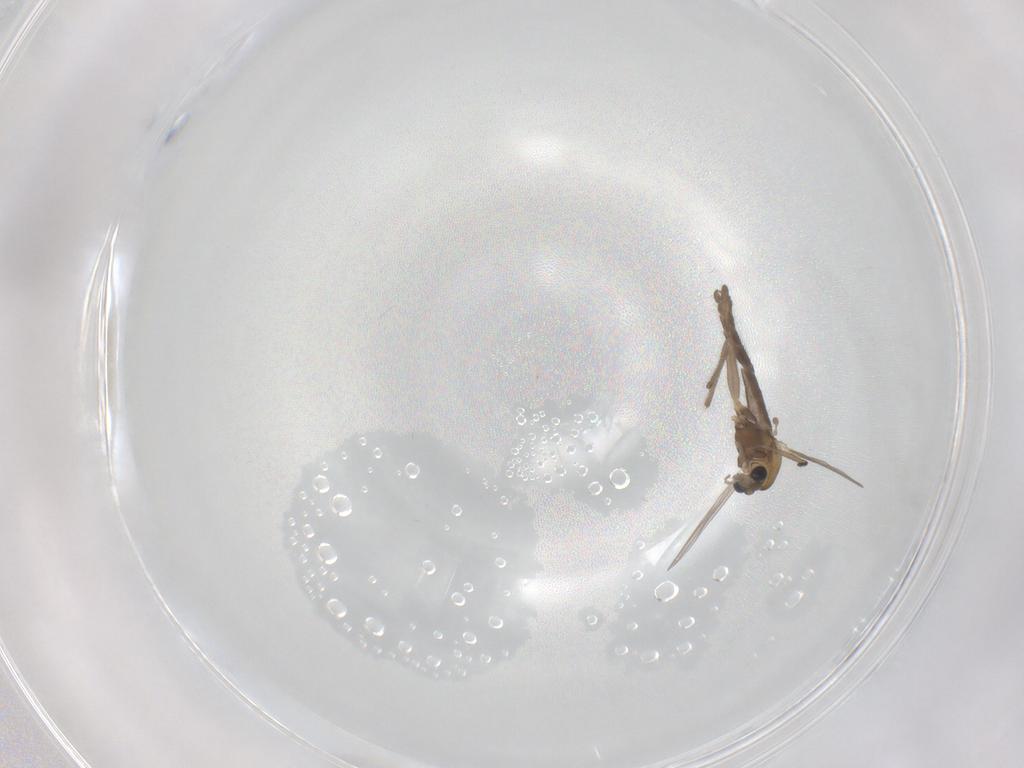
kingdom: Animalia
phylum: Arthropoda
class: Insecta
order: Diptera
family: Chironomidae
